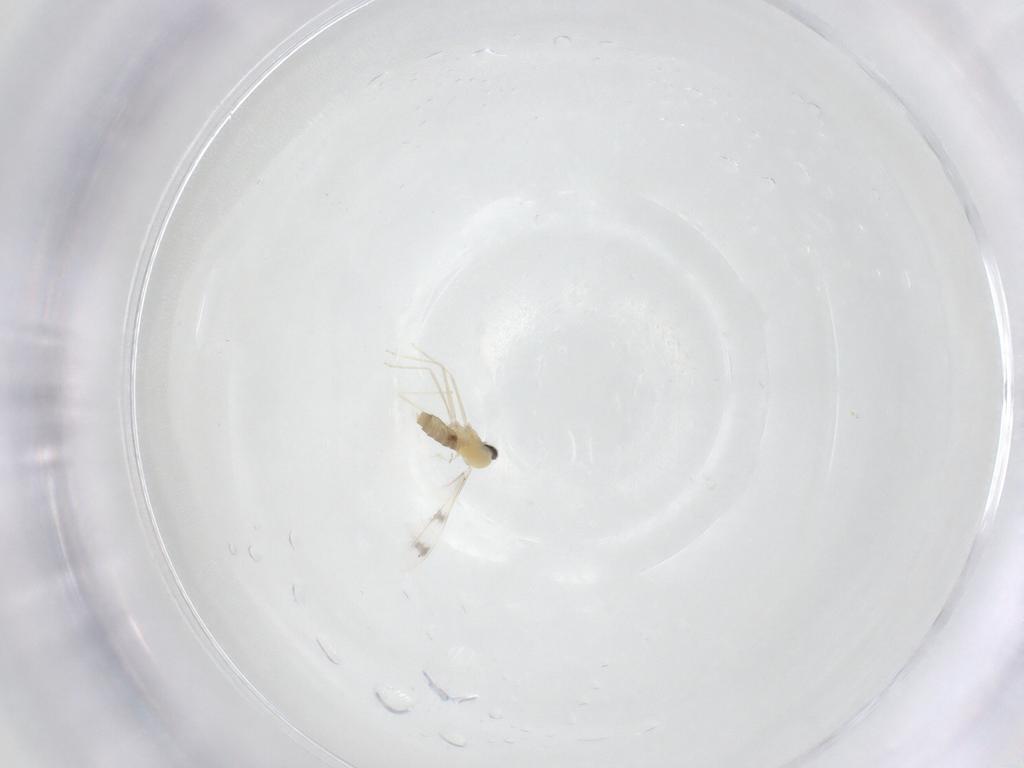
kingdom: Animalia
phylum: Arthropoda
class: Insecta
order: Diptera
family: Cecidomyiidae
